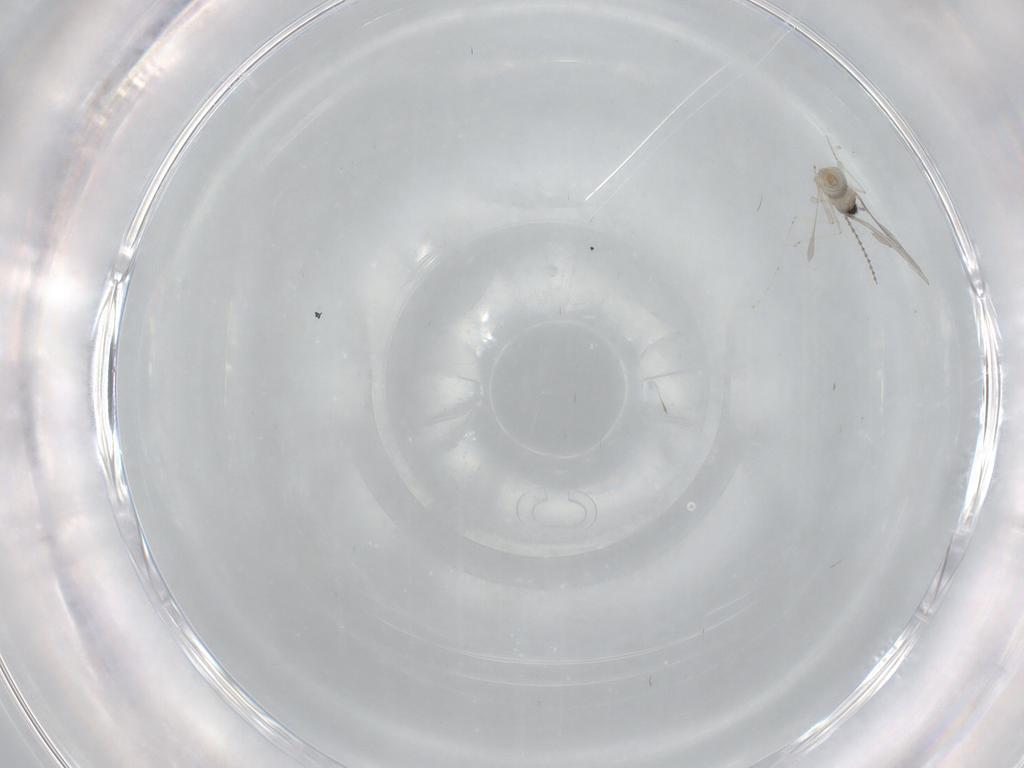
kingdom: Animalia
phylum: Arthropoda
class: Insecta
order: Diptera
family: Cecidomyiidae
